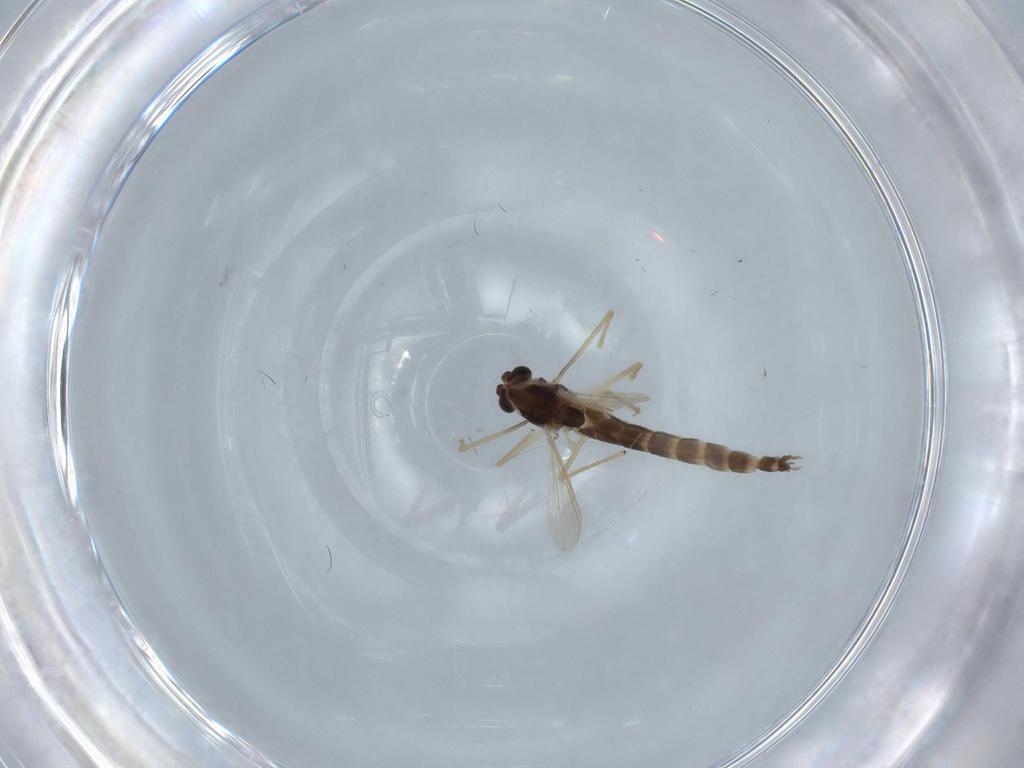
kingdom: Animalia
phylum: Arthropoda
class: Insecta
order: Diptera
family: Chironomidae
